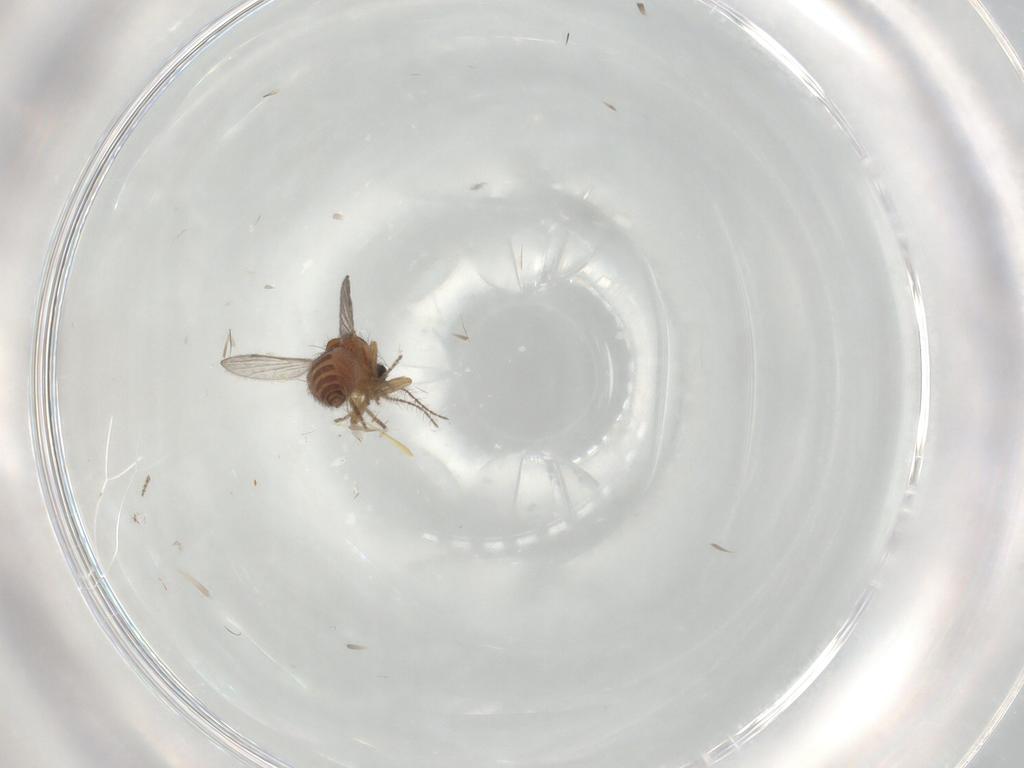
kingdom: Animalia
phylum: Arthropoda
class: Insecta
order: Diptera
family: Ceratopogonidae
